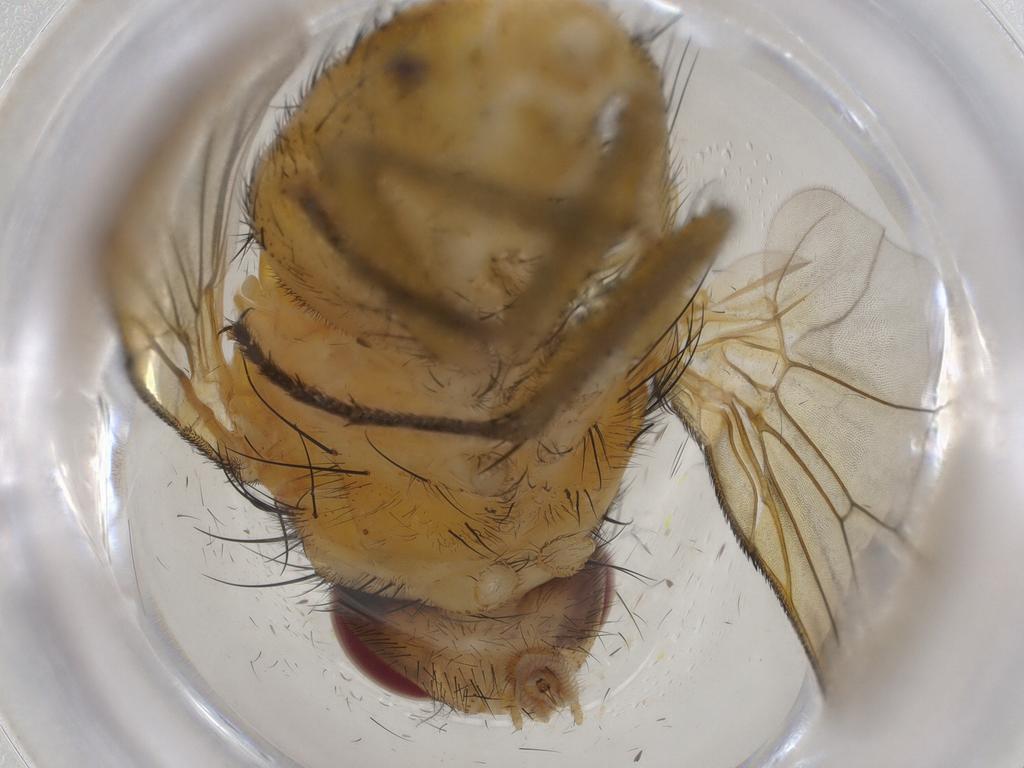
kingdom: Animalia
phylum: Arthropoda
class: Insecta
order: Diptera
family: Muscidae
